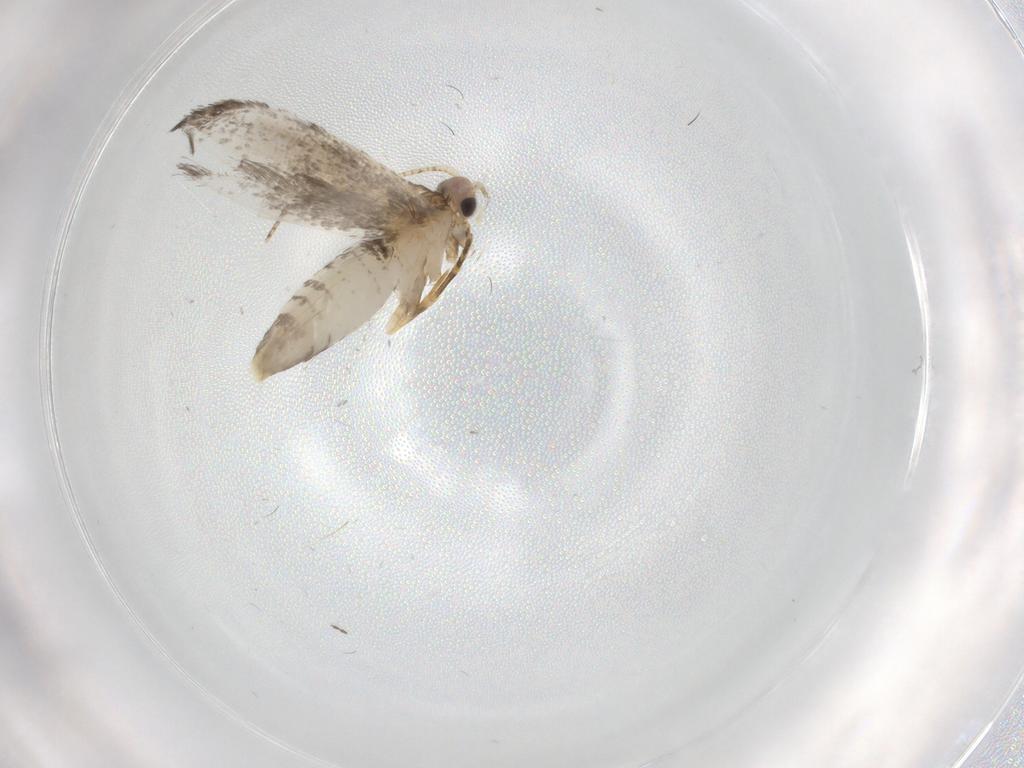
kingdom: Animalia
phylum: Arthropoda
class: Insecta
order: Lepidoptera
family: Tineidae
